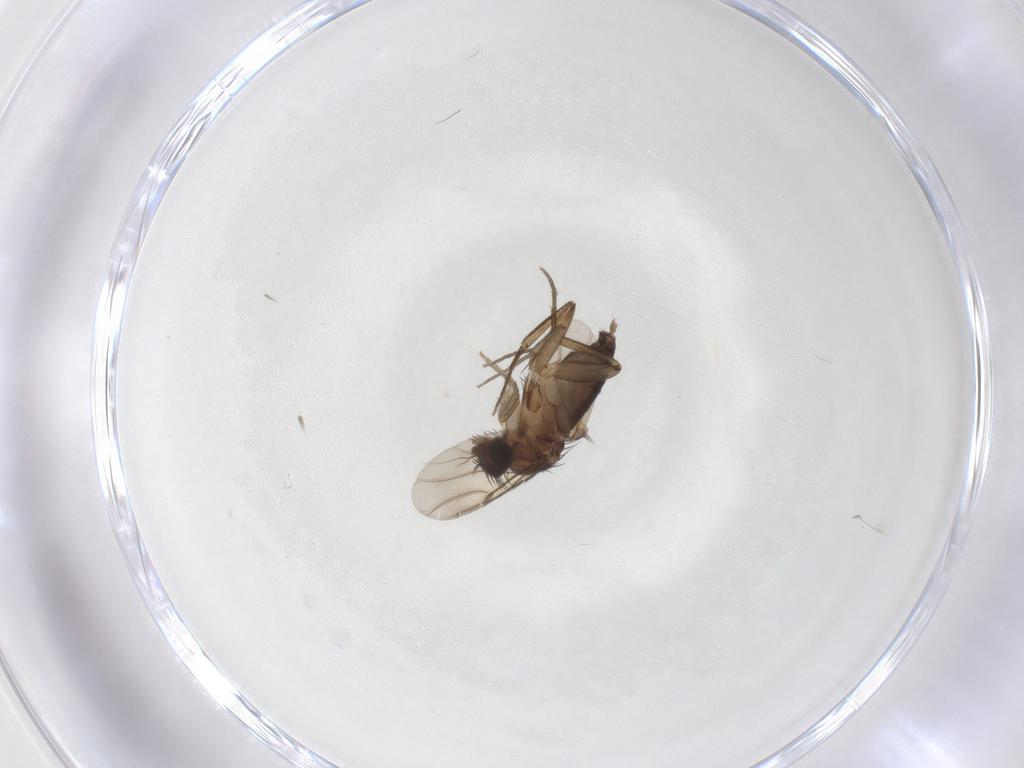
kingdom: Animalia
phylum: Arthropoda
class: Insecta
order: Diptera
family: Phoridae
